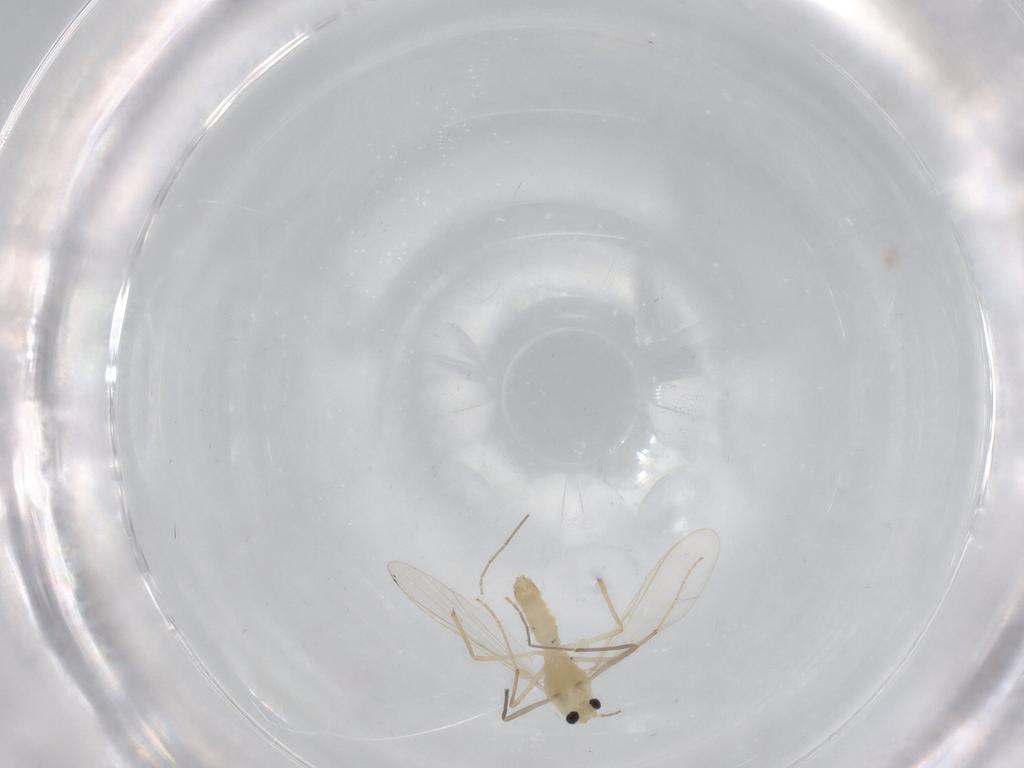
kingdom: Animalia
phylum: Arthropoda
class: Insecta
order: Diptera
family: Chironomidae
